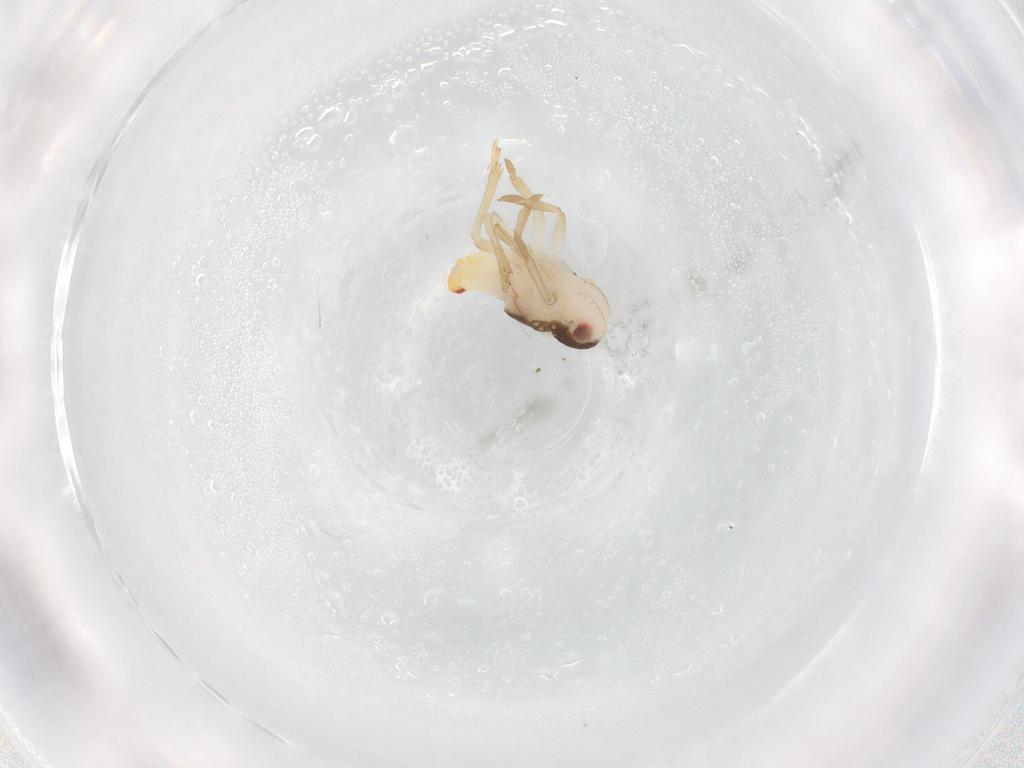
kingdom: Animalia
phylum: Arthropoda
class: Insecta
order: Hemiptera
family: Nogodinidae
